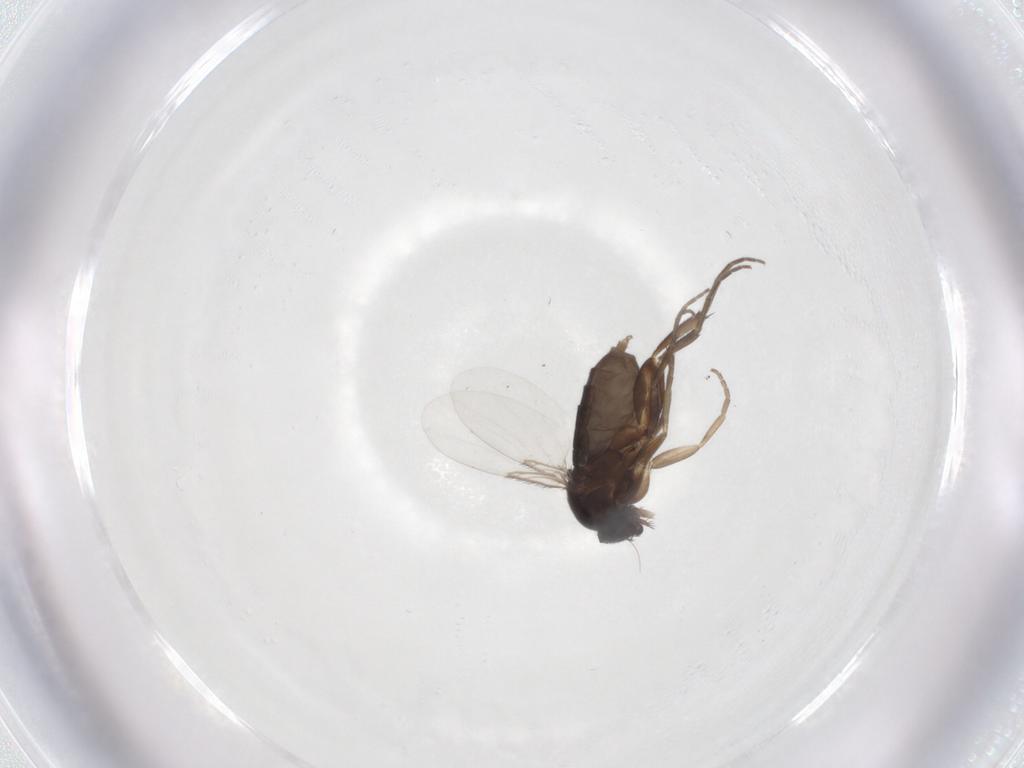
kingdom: Animalia
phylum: Arthropoda
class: Insecta
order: Diptera
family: Phoridae
